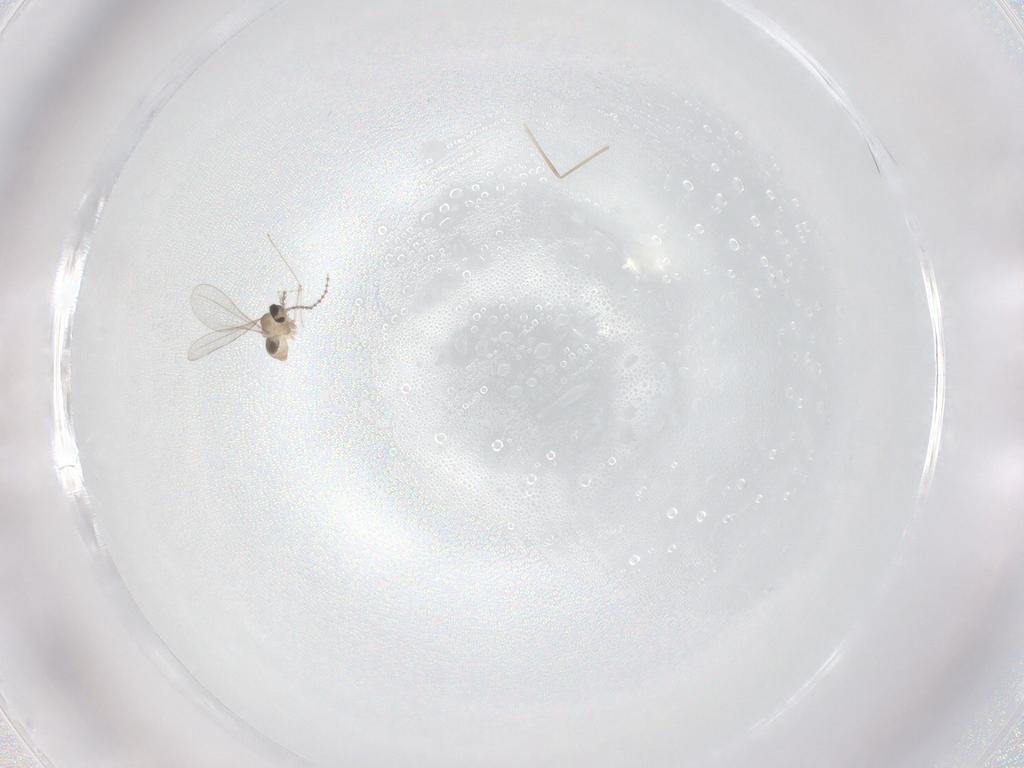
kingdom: Animalia
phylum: Arthropoda
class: Insecta
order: Diptera
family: Cecidomyiidae
